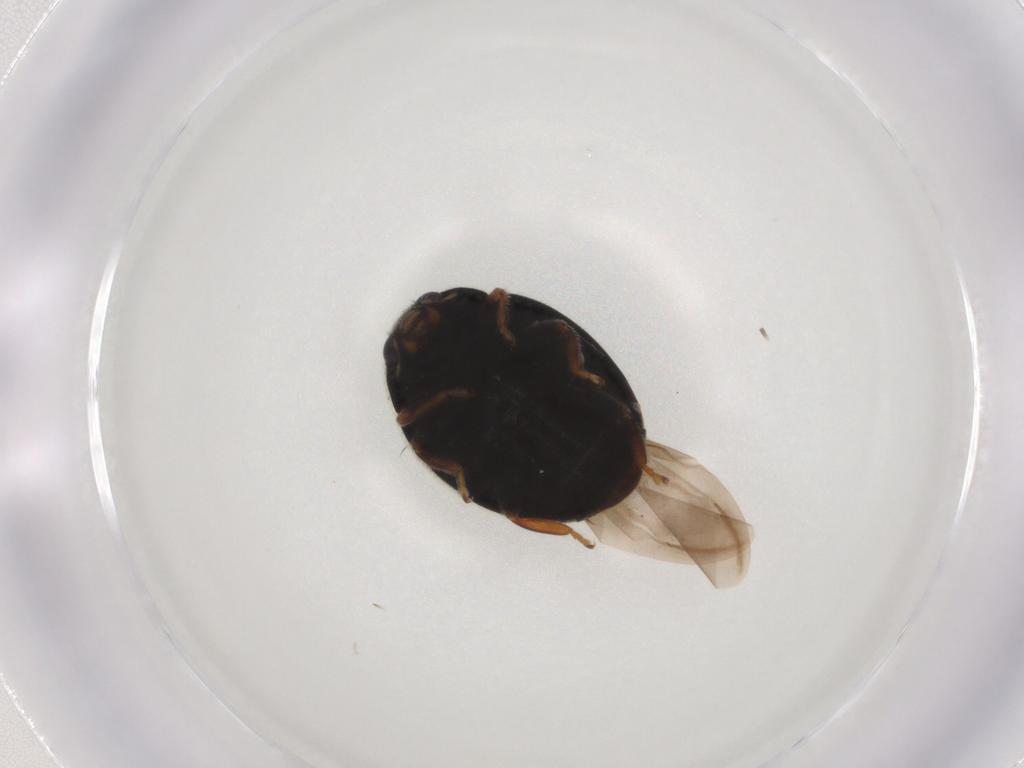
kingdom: Animalia
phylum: Arthropoda
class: Insecta
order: Coleoptera
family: Coccinellidae
